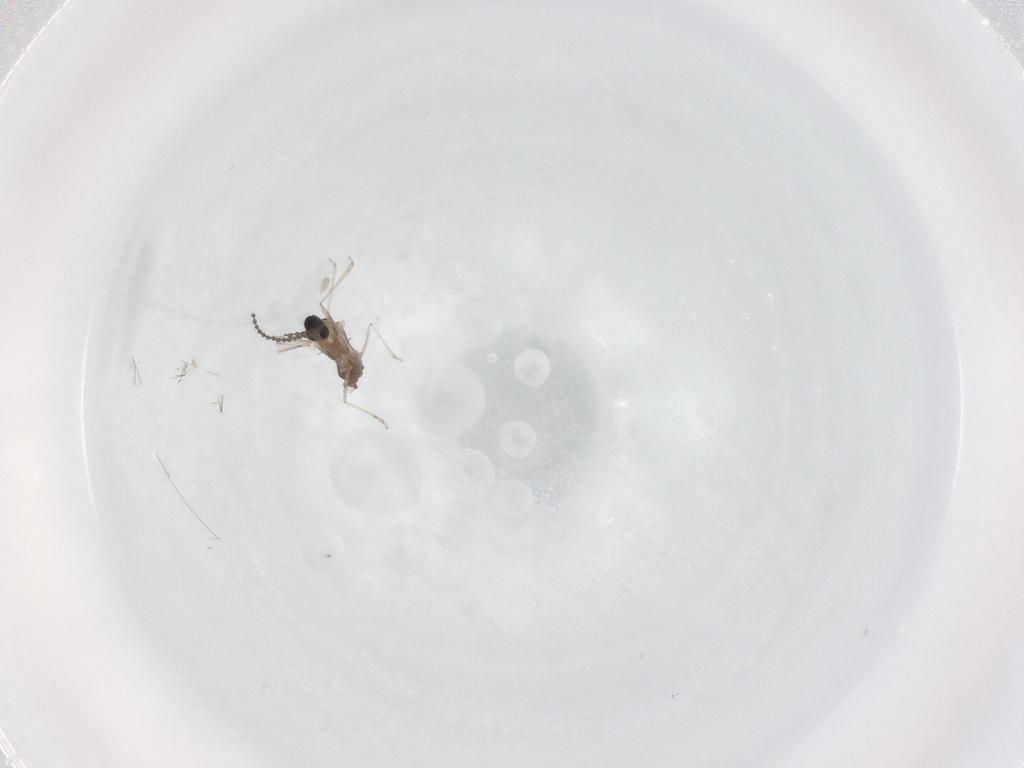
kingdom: Animalia
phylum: Arthropoda
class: Insecta
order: Diptera
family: Cecidomyiidae
